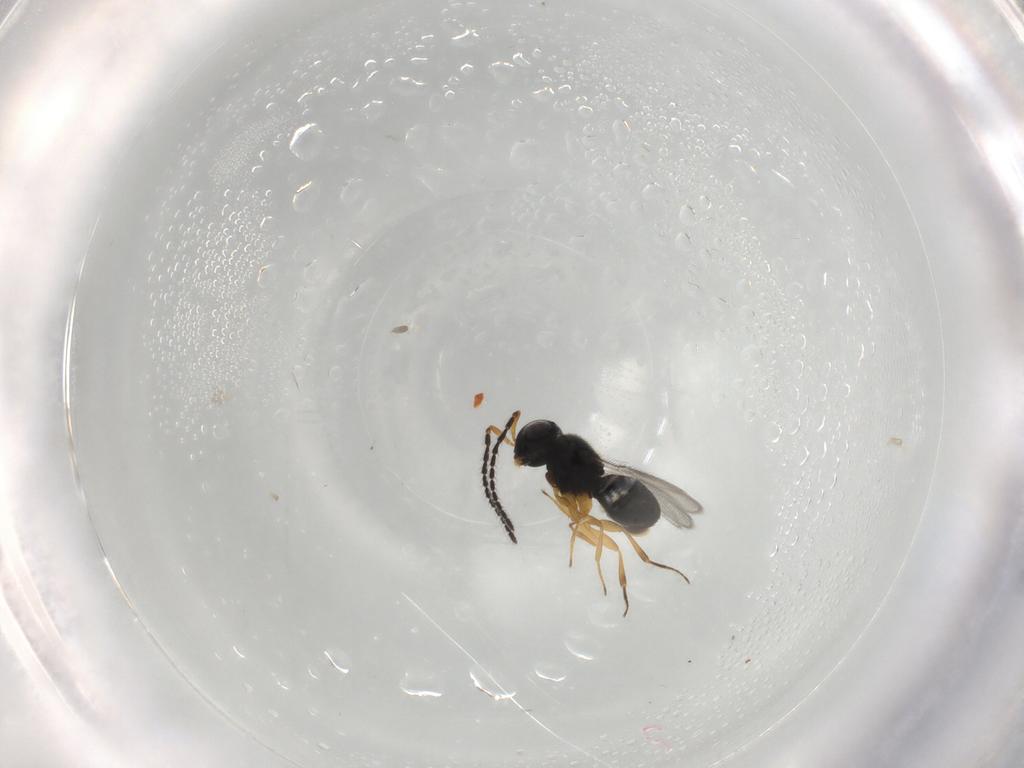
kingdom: Animalia
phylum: Arthropoda
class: Insecta
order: Hymenoptera
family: Scelionidae
